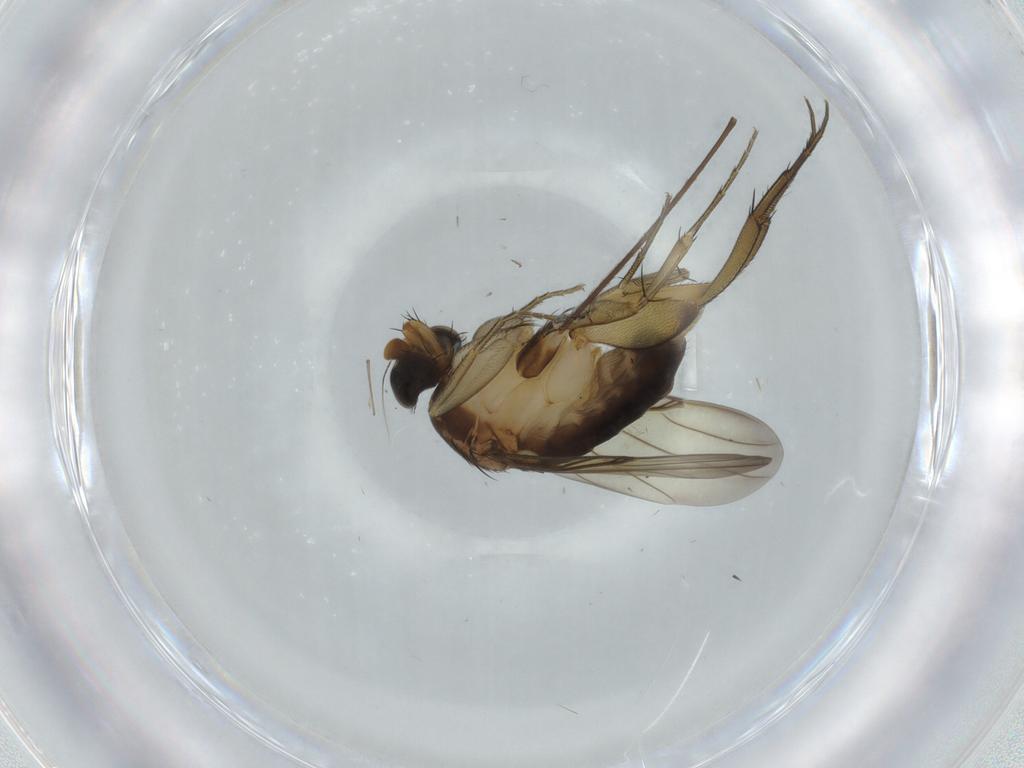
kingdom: Animalia
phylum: Arthropoda
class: Insecta
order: Diptera
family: Phoridae
